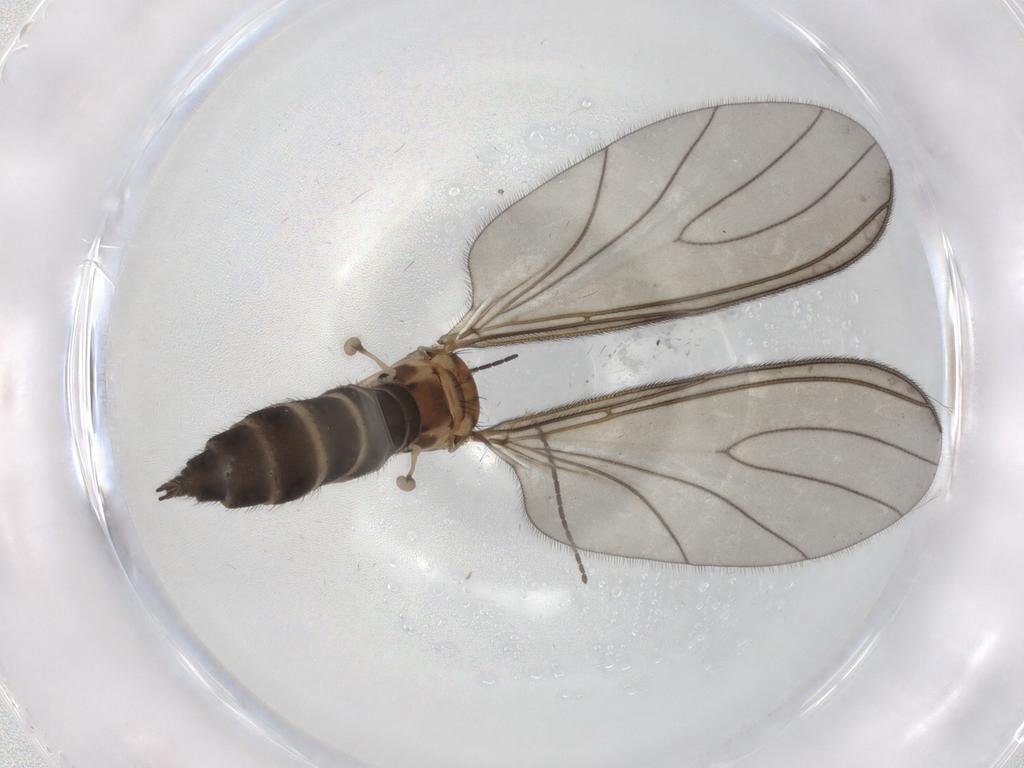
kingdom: Animalia
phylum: Arthropoda
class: Insecta
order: Diptera
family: Sciaridae
